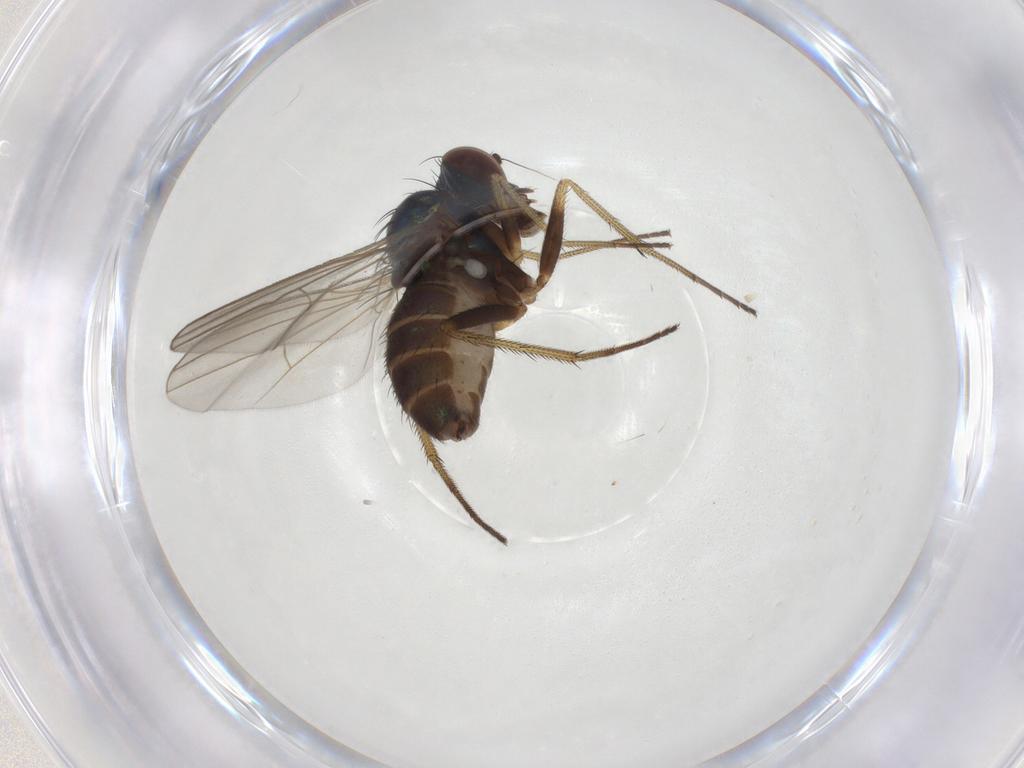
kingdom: Animalia
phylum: Arthropoda
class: Insecta
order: Diptera
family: Dolichopodidae
